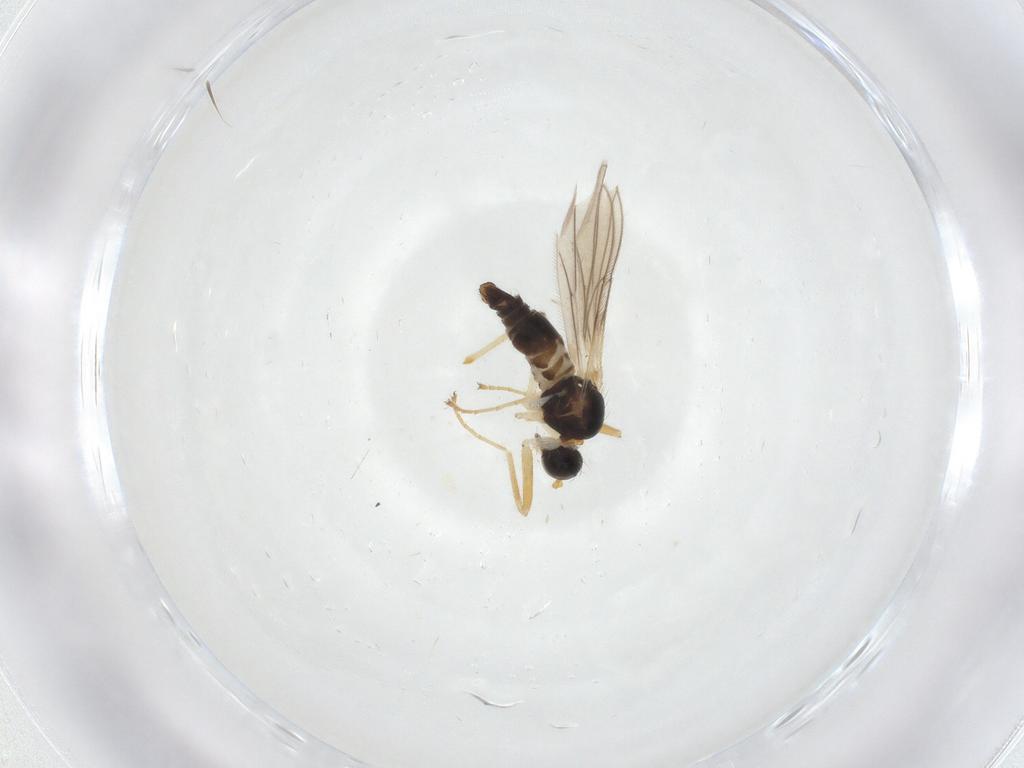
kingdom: Animalia
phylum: Arthropoda
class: Insecta
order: Diptera
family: Hybotidae
